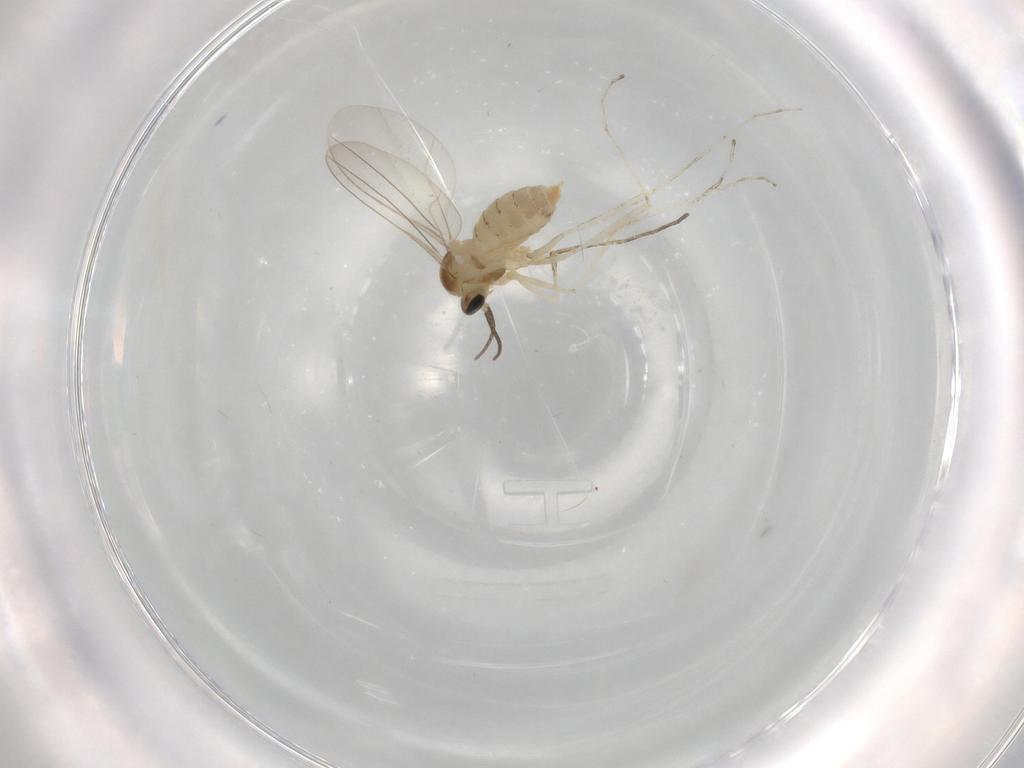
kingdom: Animalia
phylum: Arthropoda
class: Insecta
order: Diptera
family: Cecidomyiidae
